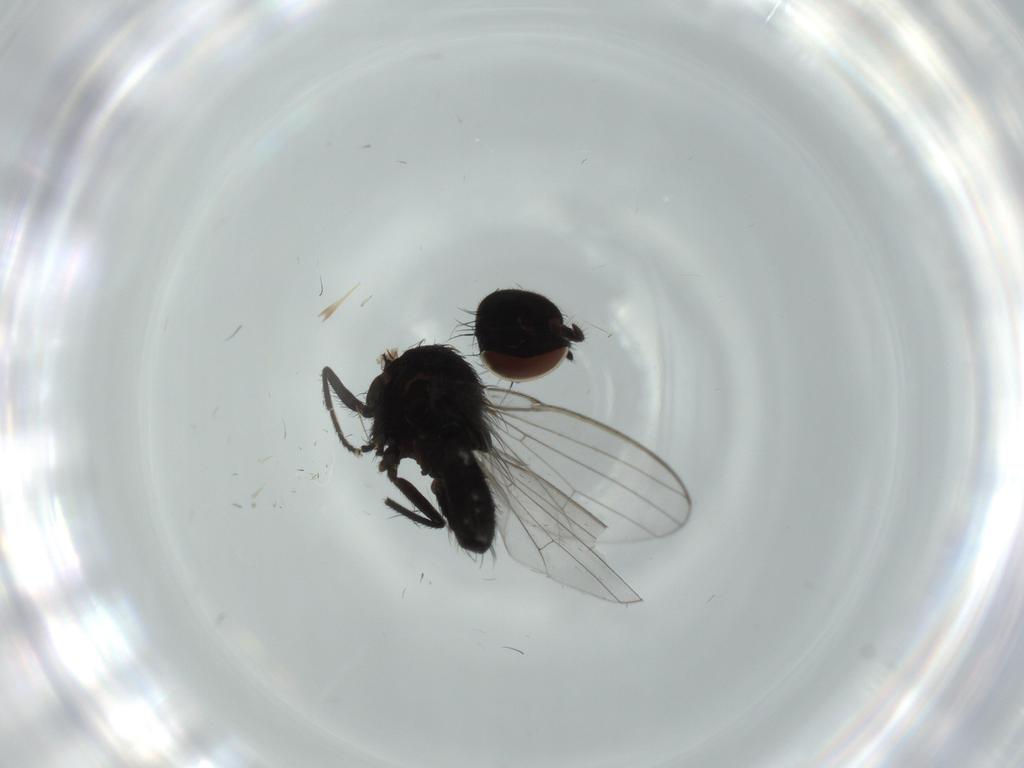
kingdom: Animalia
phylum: Arthropoda
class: Insecta
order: Diptera
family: Milichiidae
